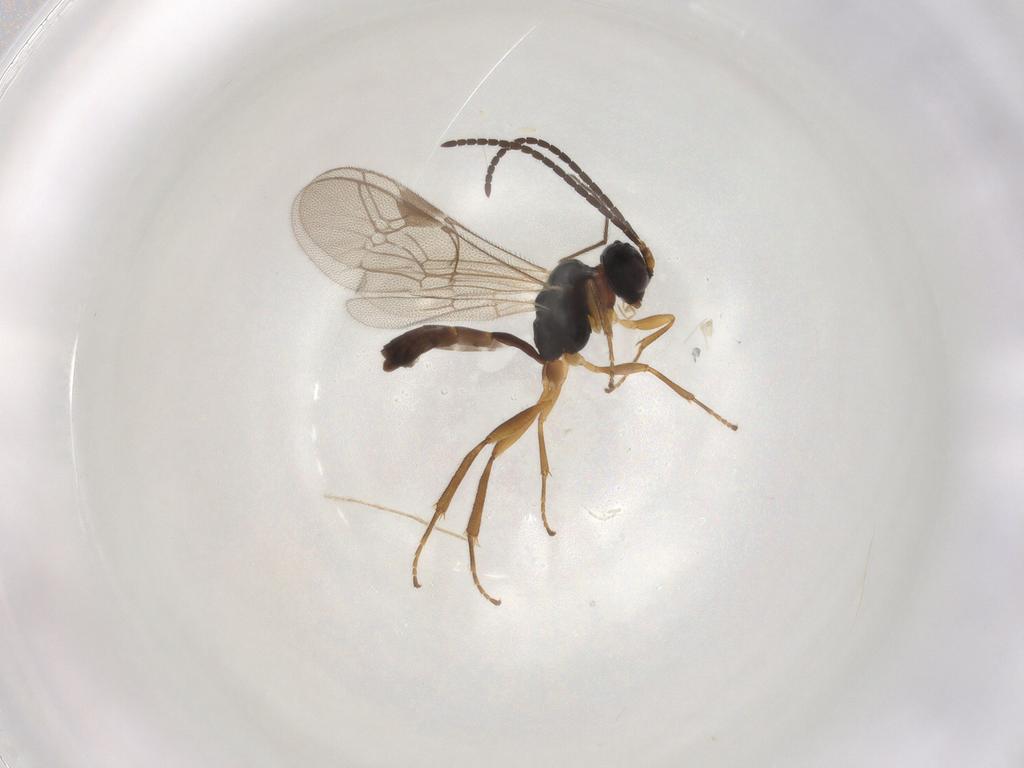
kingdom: Animalia
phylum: Arthropoda
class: Insecta
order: Hymenoptera
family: Ichneumonidae
